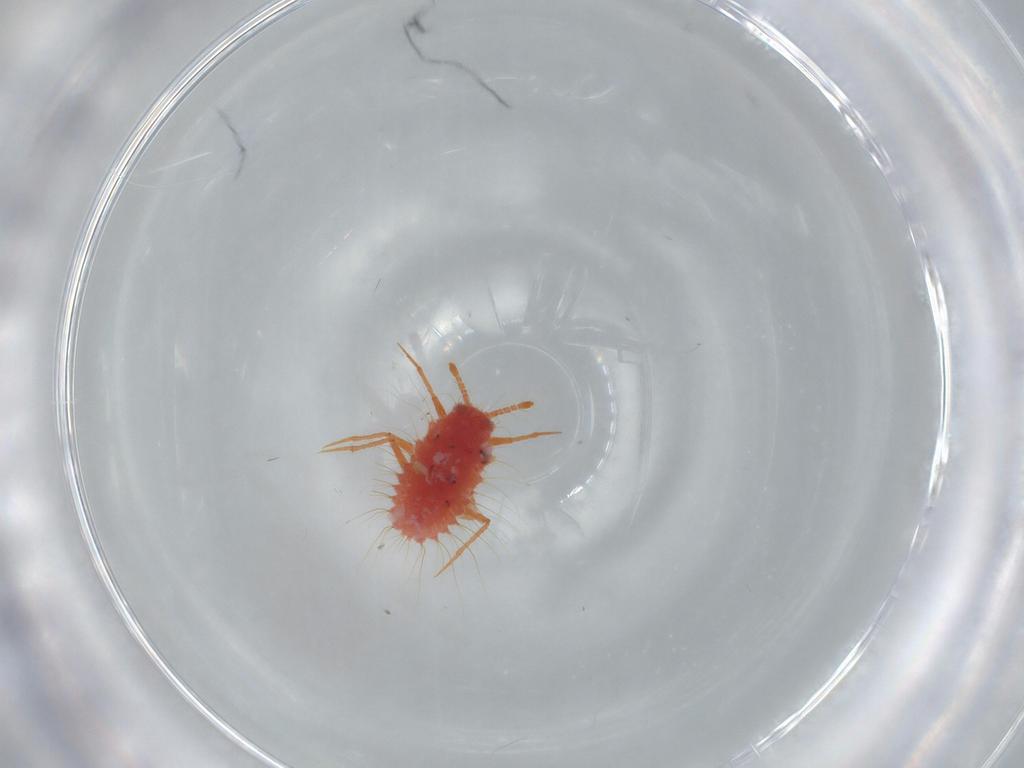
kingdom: Animalia
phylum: Arthropoda
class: Insecta
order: Hemiptera
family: Monophlebidae
